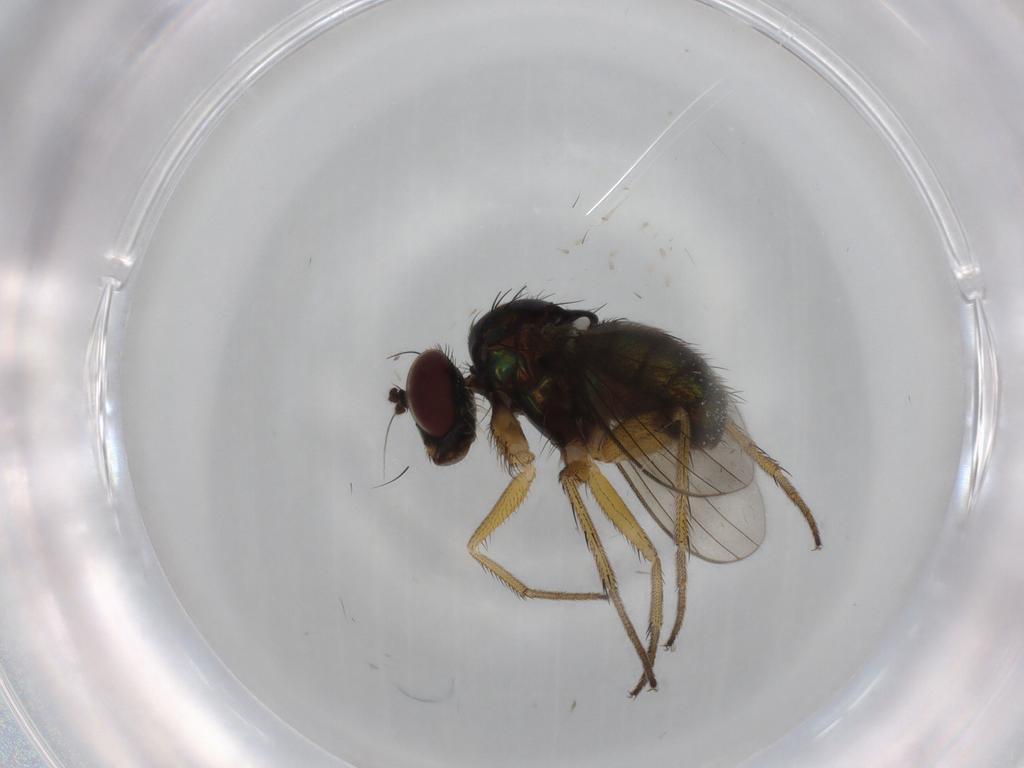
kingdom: Animalia
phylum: Arthropoda
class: Insecta
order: Diptera
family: Dolichopodidae
